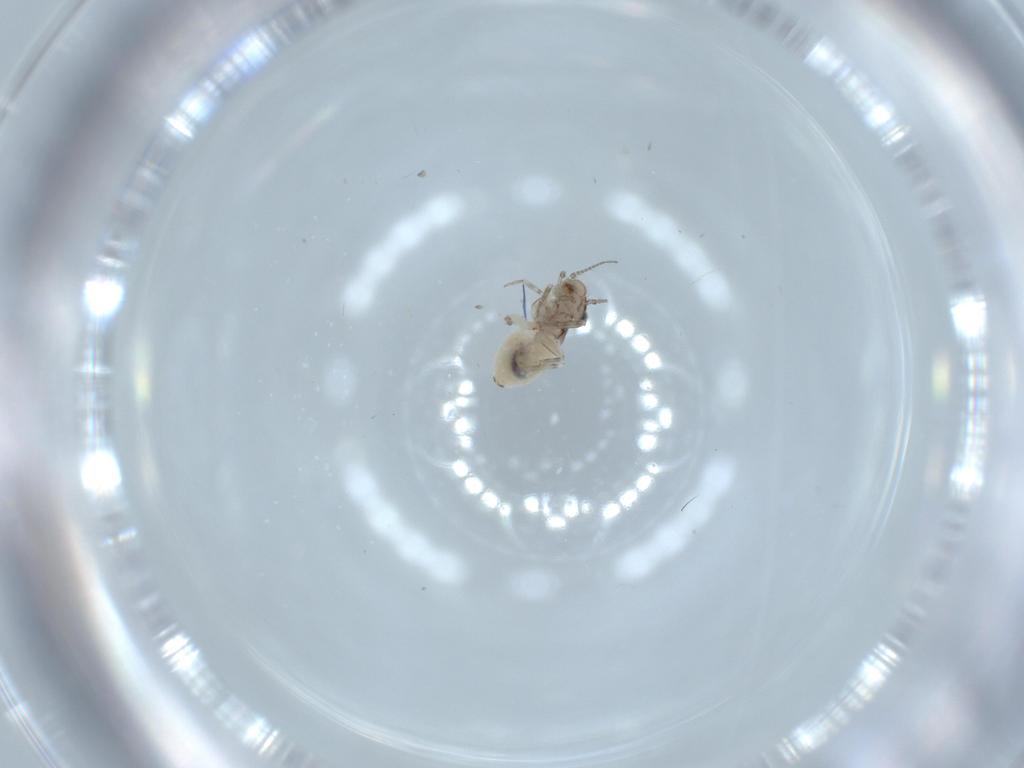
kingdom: Animalia
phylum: Arthropoda
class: Insecta
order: Psocodea
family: Lepidopsocidae
